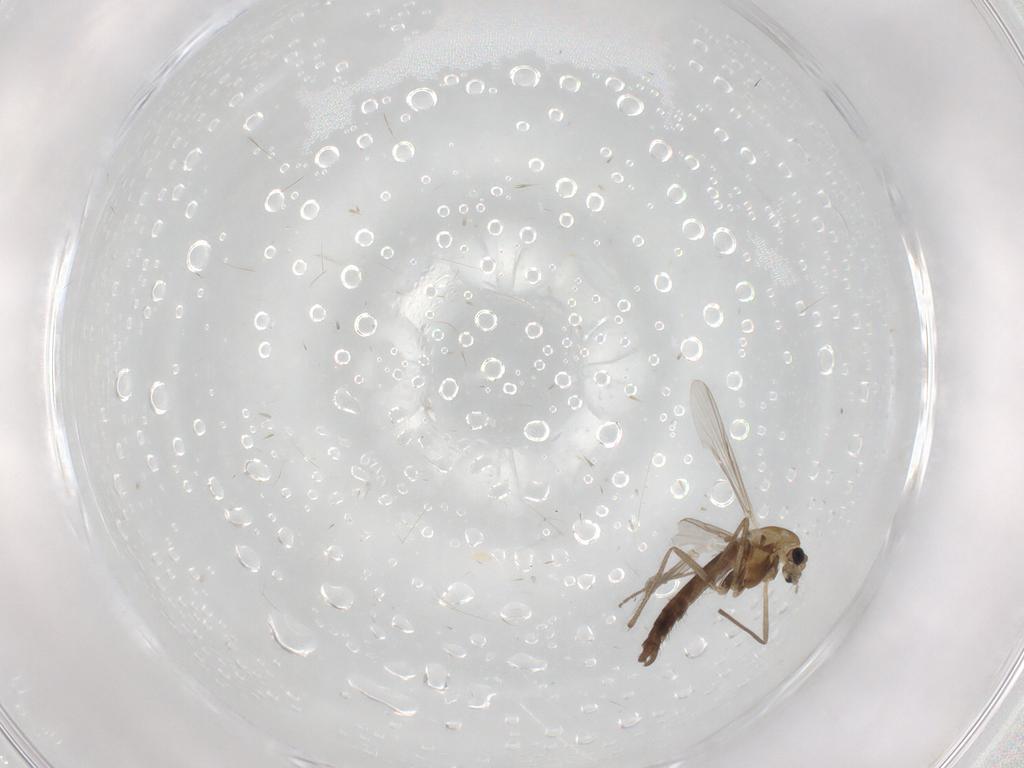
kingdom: Animalia
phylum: Arthropoda
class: Insecta
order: Diptera
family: Chironomidae
